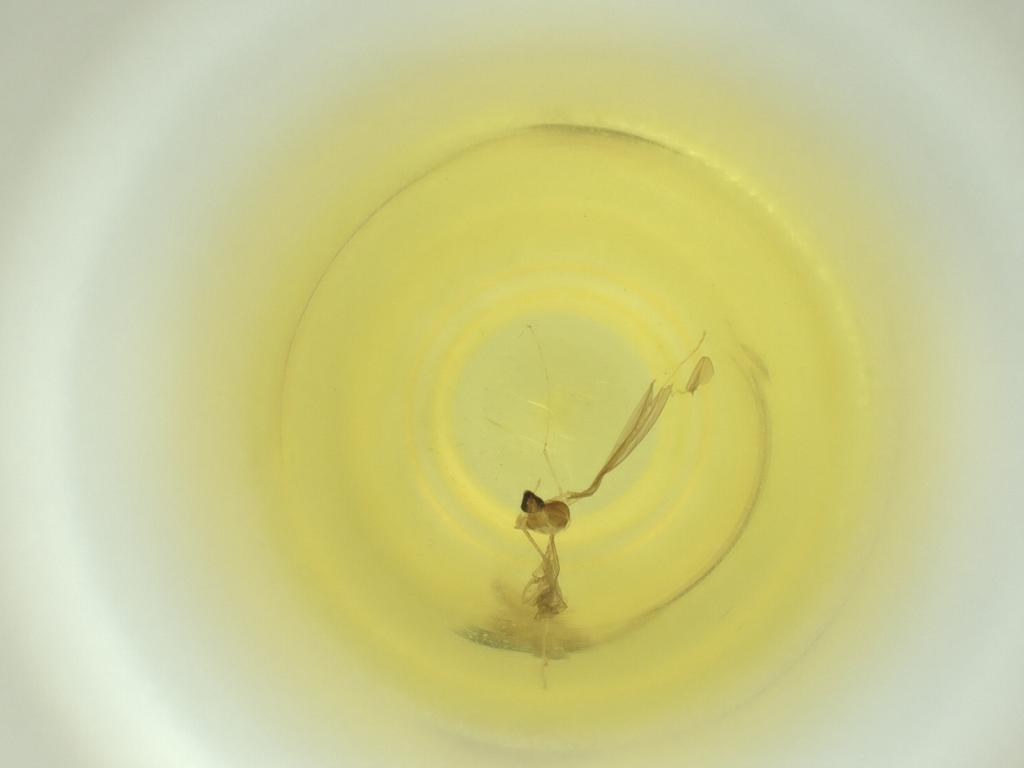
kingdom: Animalia
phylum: Arthropoda
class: Insecta
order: Diptera
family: Cecidomyiidae
